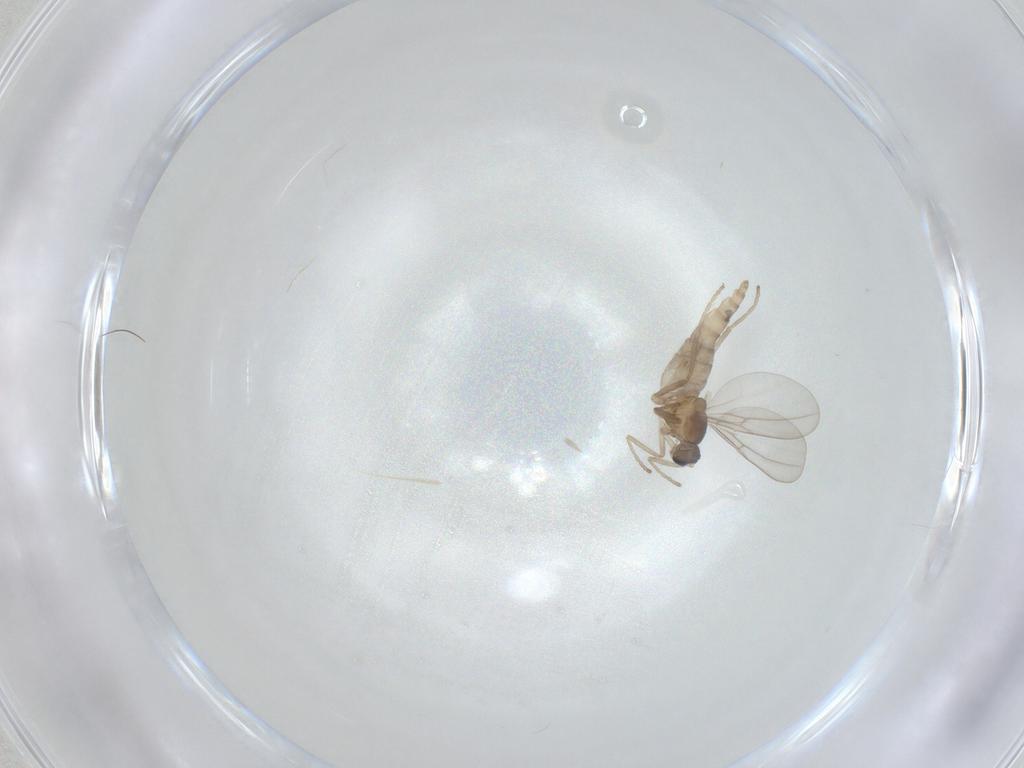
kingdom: Animalia
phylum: Arthropoda
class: Insecta
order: Diptera
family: Cecidomyiidae
